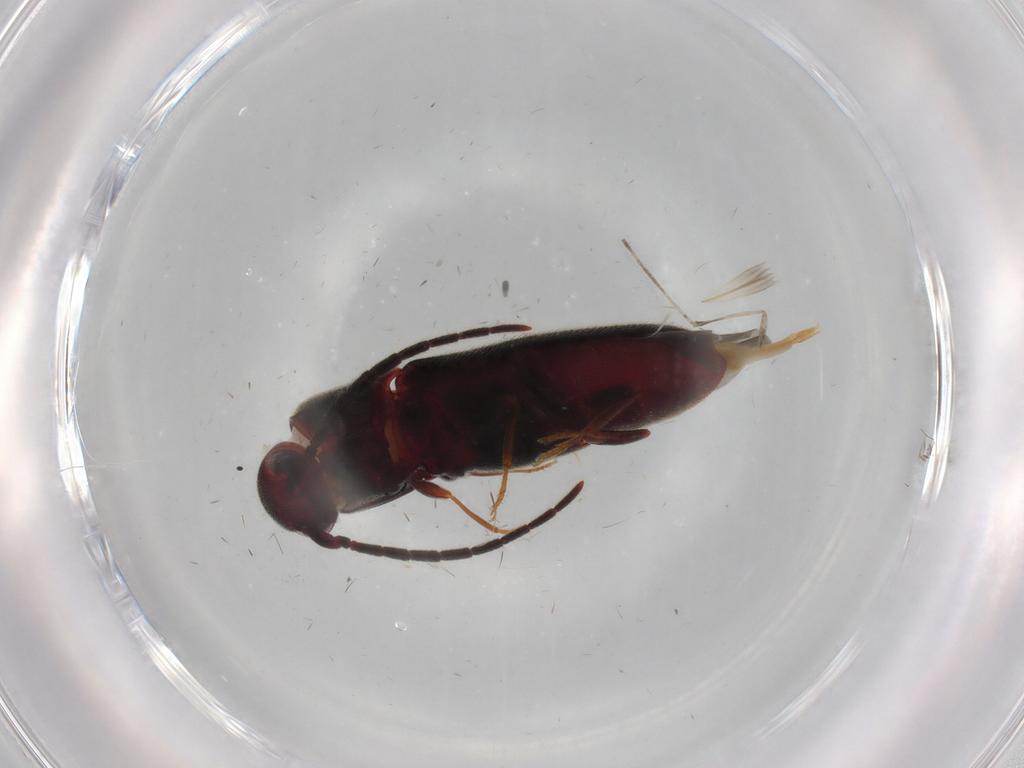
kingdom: Animalia
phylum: Arthropoda
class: Insecta
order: Coleoptera
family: Eucnemidae
